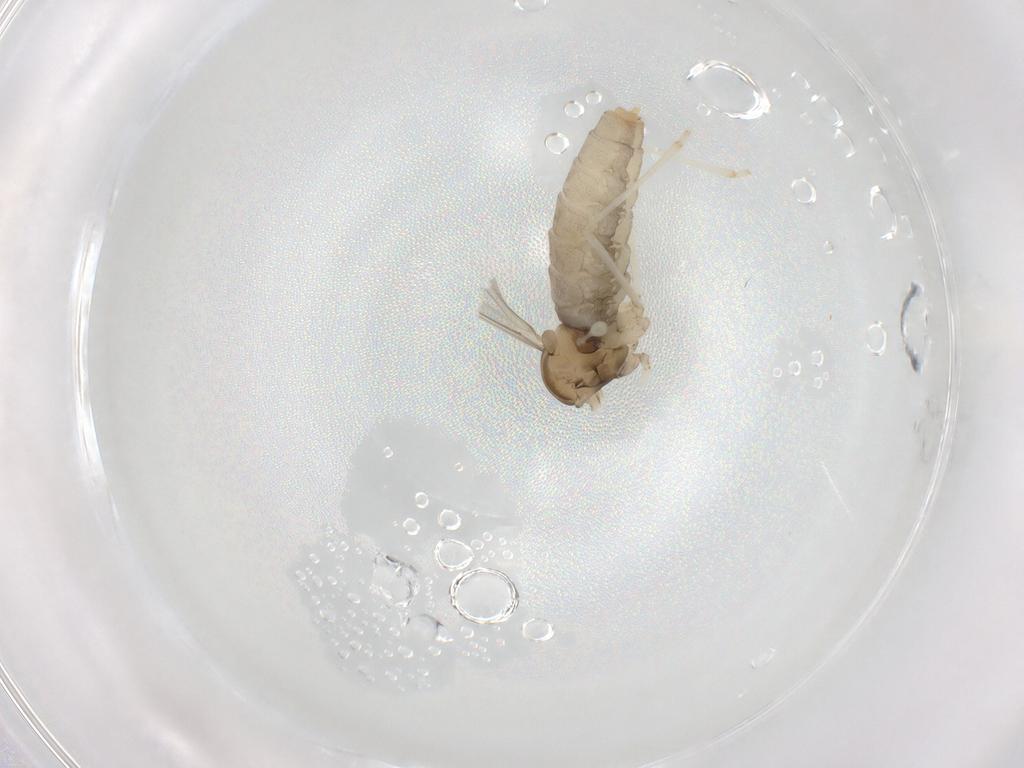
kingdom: Animalia
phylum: Arthropoda
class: Insecta
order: Diptera
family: Cecidomyiidae
